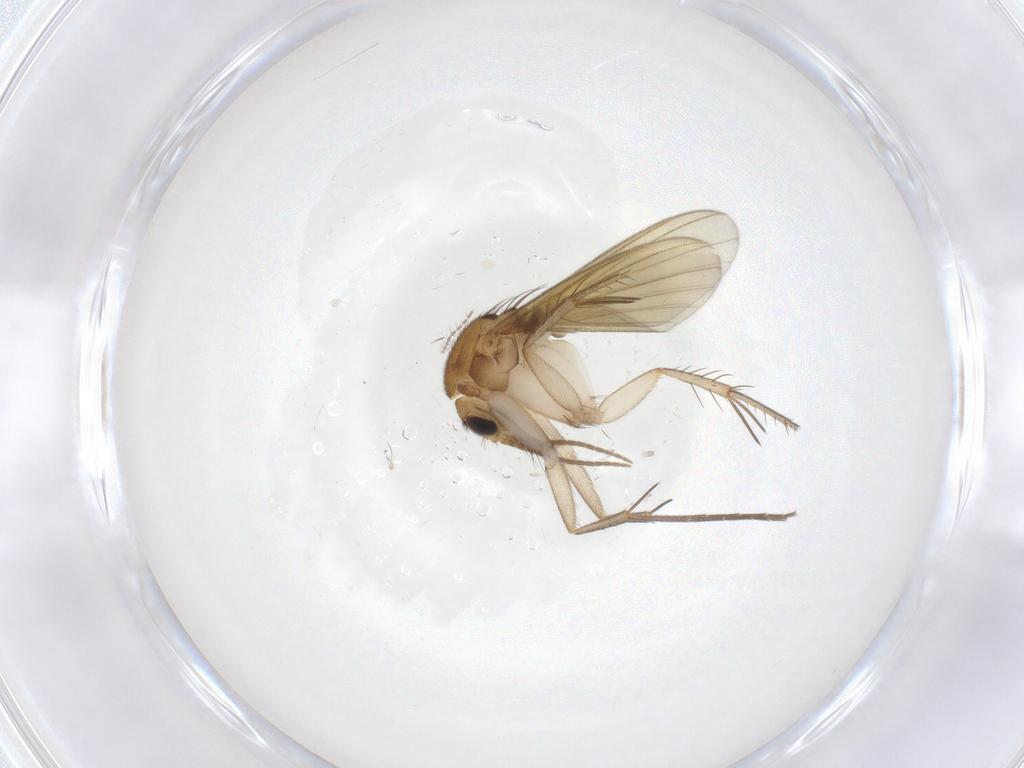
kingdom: Animalia
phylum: Arthropoda
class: Insecta
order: Diptera
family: Mycetophilidae
